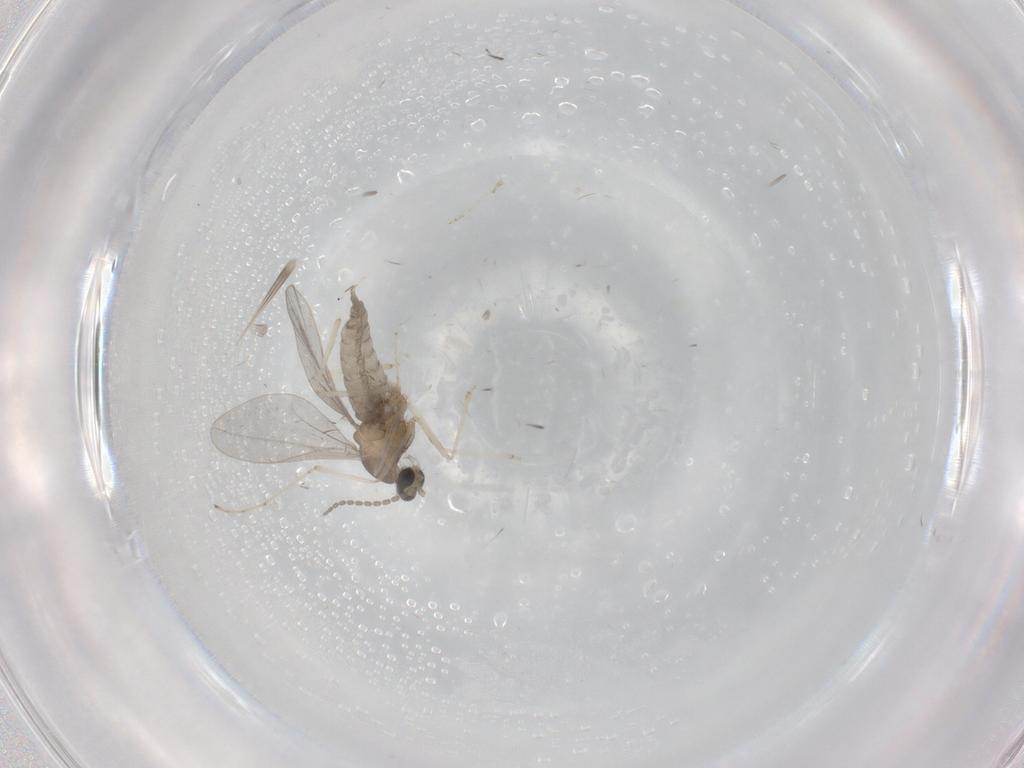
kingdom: Animalia
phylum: Arthropoda
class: Insecta
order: Diptera
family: Cecidomyiidae
